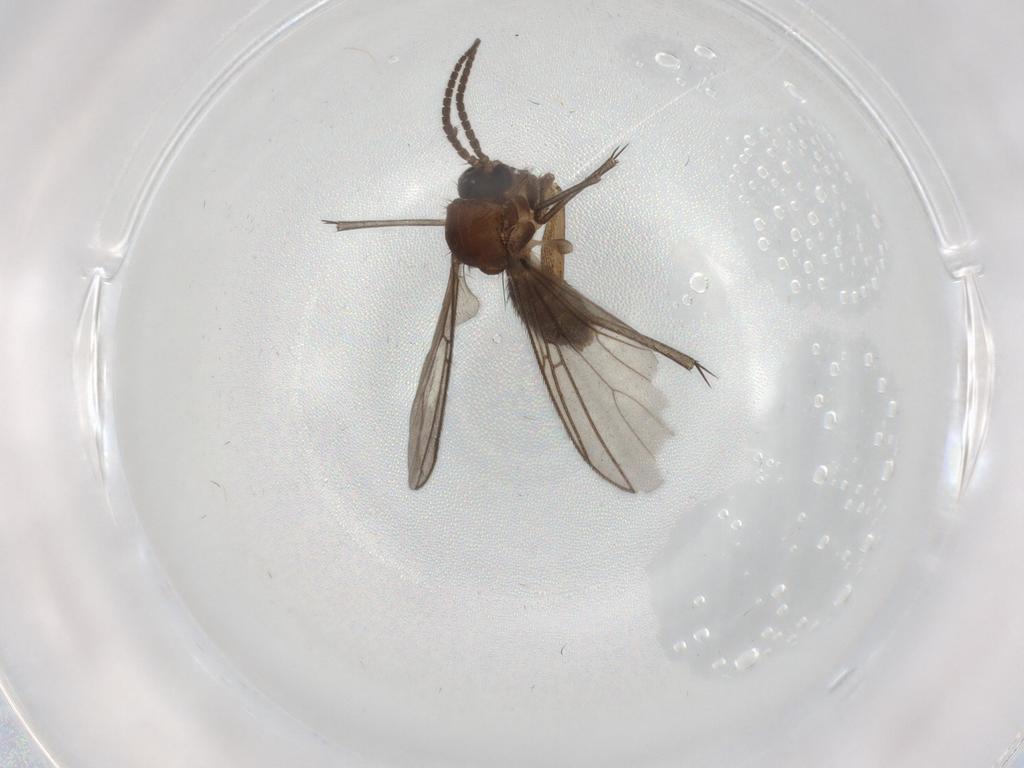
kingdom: Animalia
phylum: Arthropoda
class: Insecta
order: Diptera
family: Mycetophilidae
